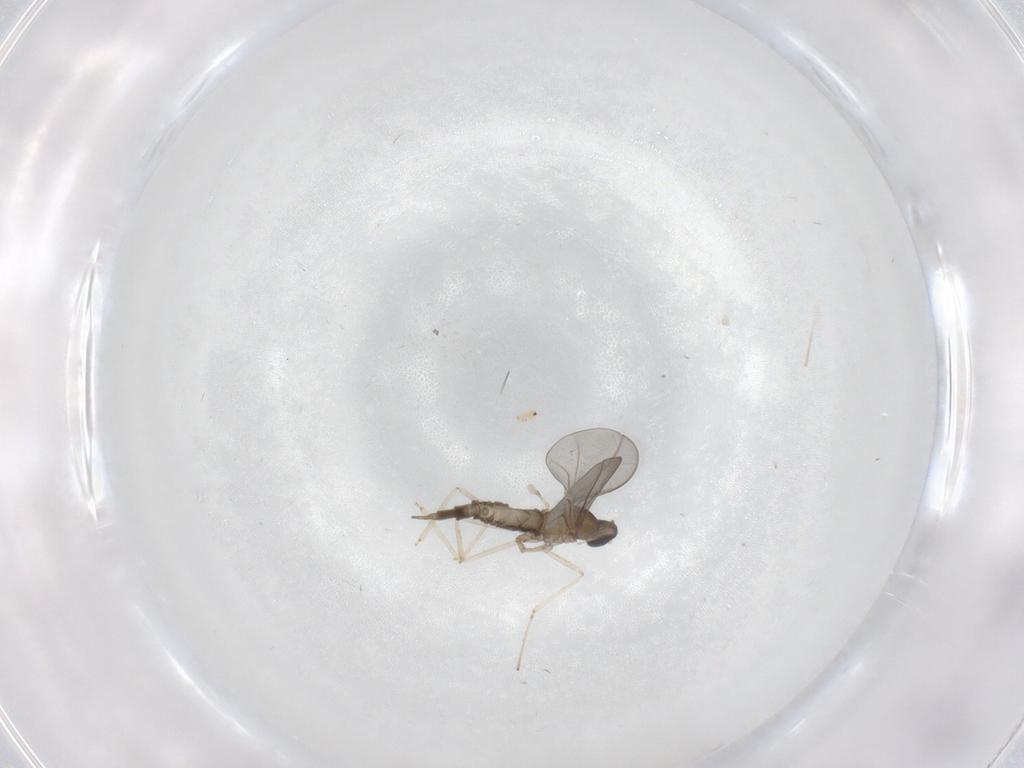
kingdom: Animalia
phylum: Arthropoda
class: Insecta
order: Diptera
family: Cecidomyiidae
